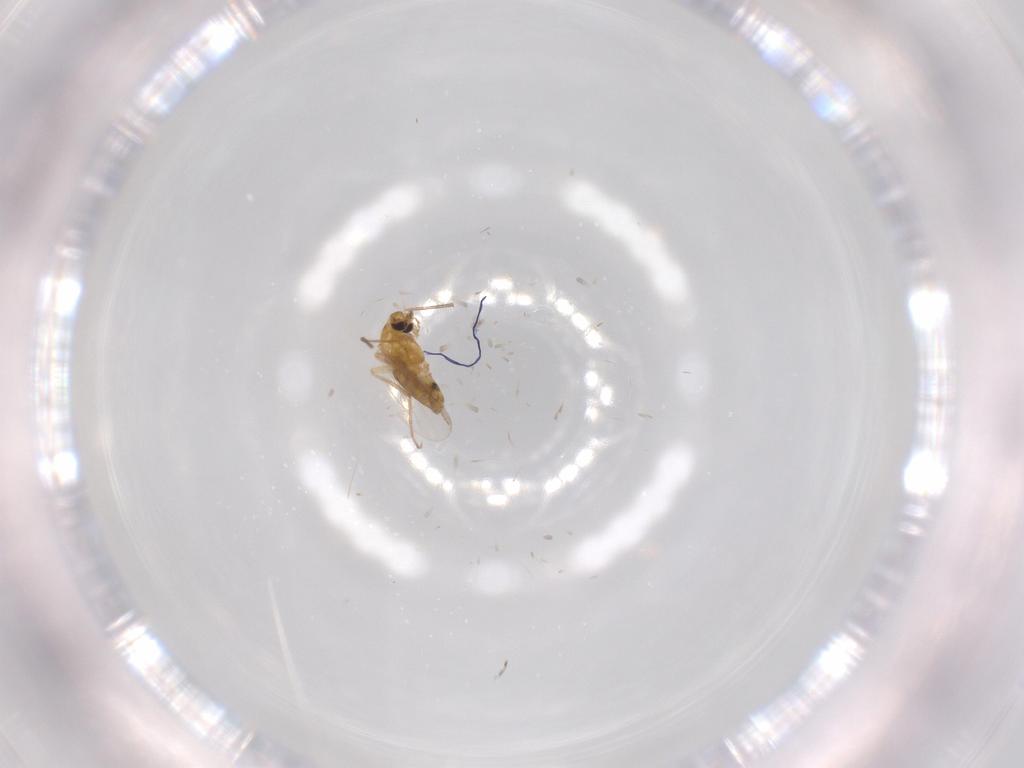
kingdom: Animalia
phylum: Arthropoda
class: Insecta
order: Diptera
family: Chironomidae
